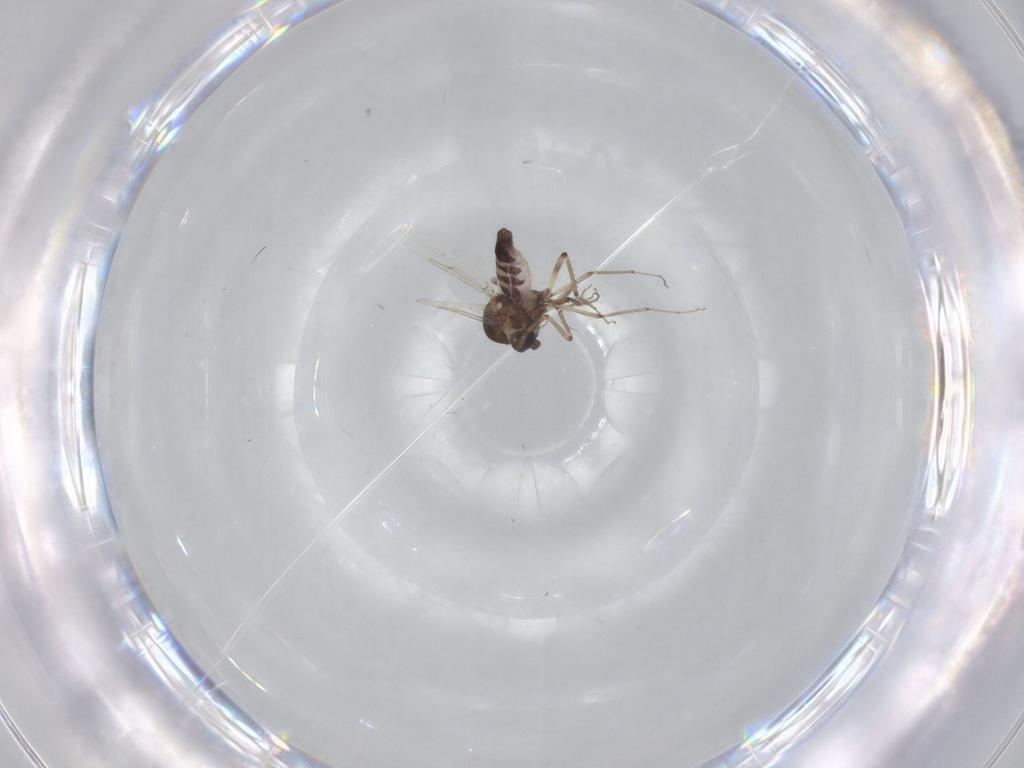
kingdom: Animalia
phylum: Arthropoda
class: Insecta
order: Diptera
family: Ceratopogonidae
